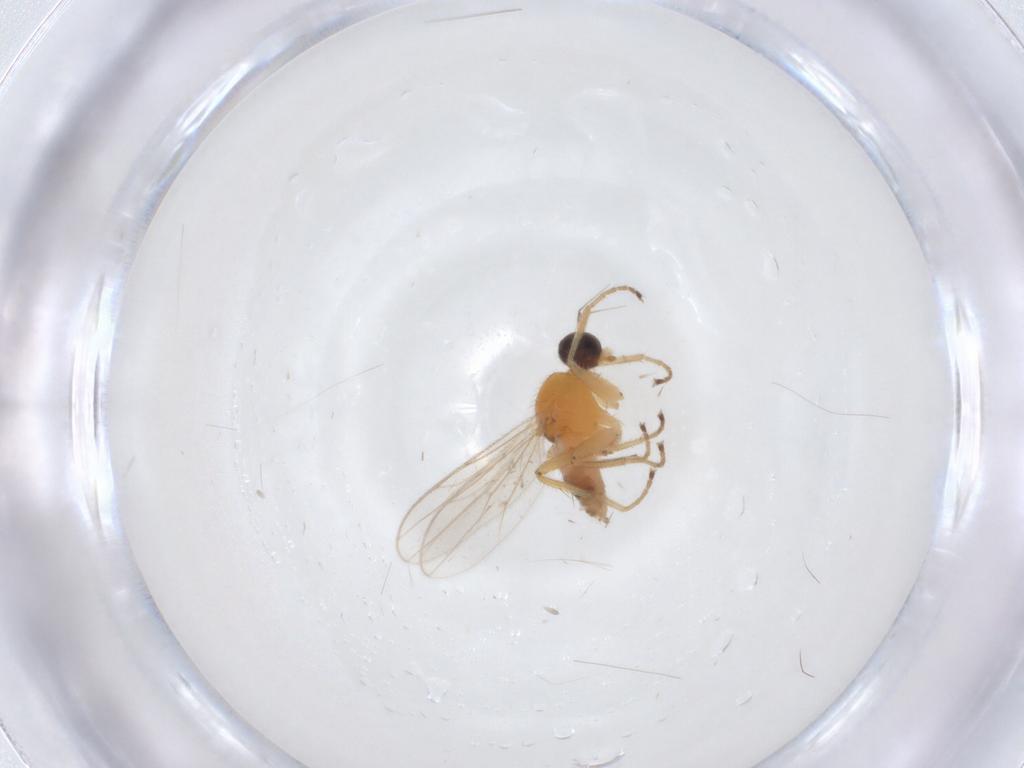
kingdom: Animalia
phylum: Arthropoda
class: Insecta
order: Diptera
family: Hybotidae
